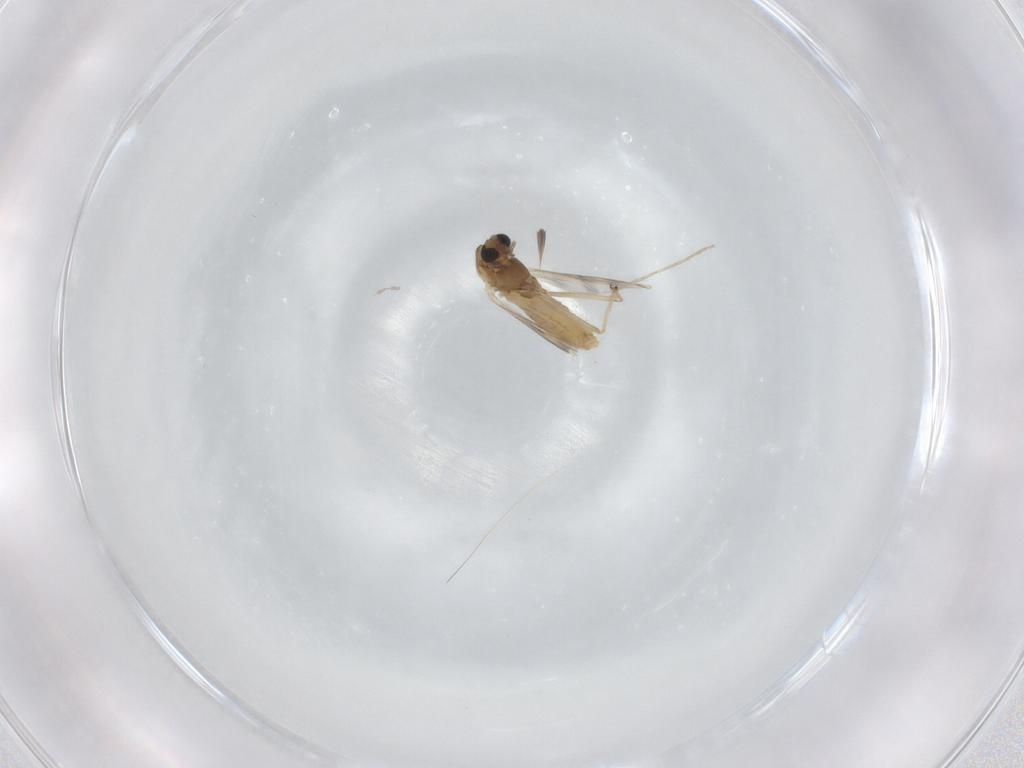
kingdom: Animalia
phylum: Arthropoda
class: Insecta
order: Diptera
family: Chironomidae
